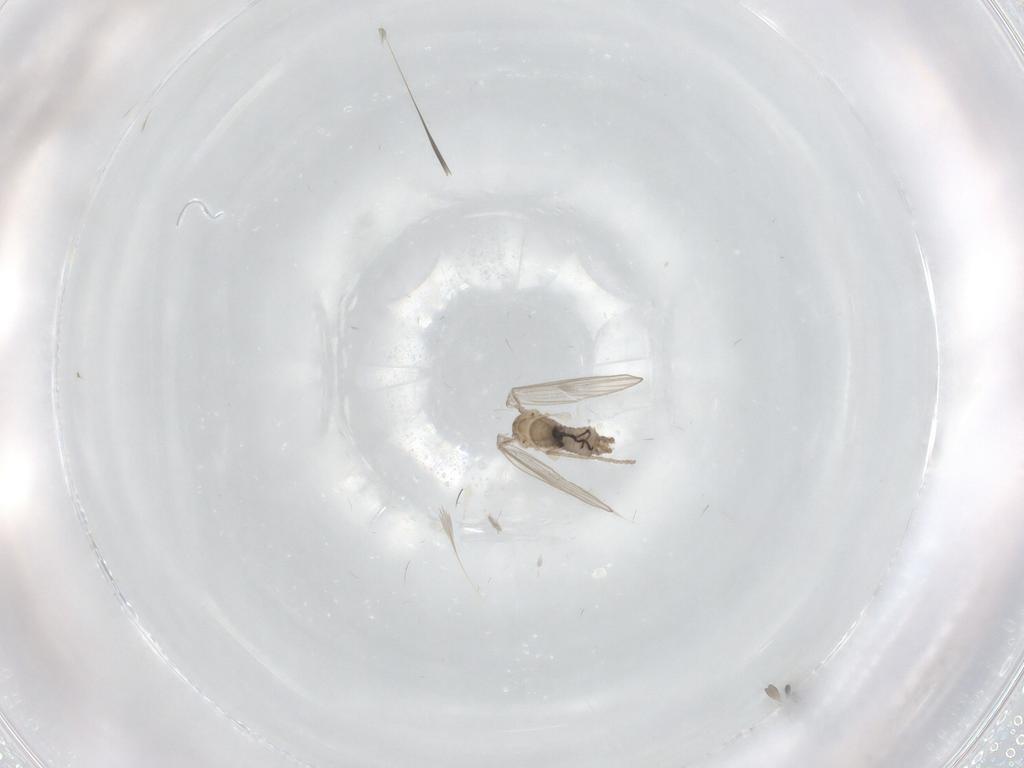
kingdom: Animalia
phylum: Arthropoda
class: Insecta
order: Diptera
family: Psychodidae
